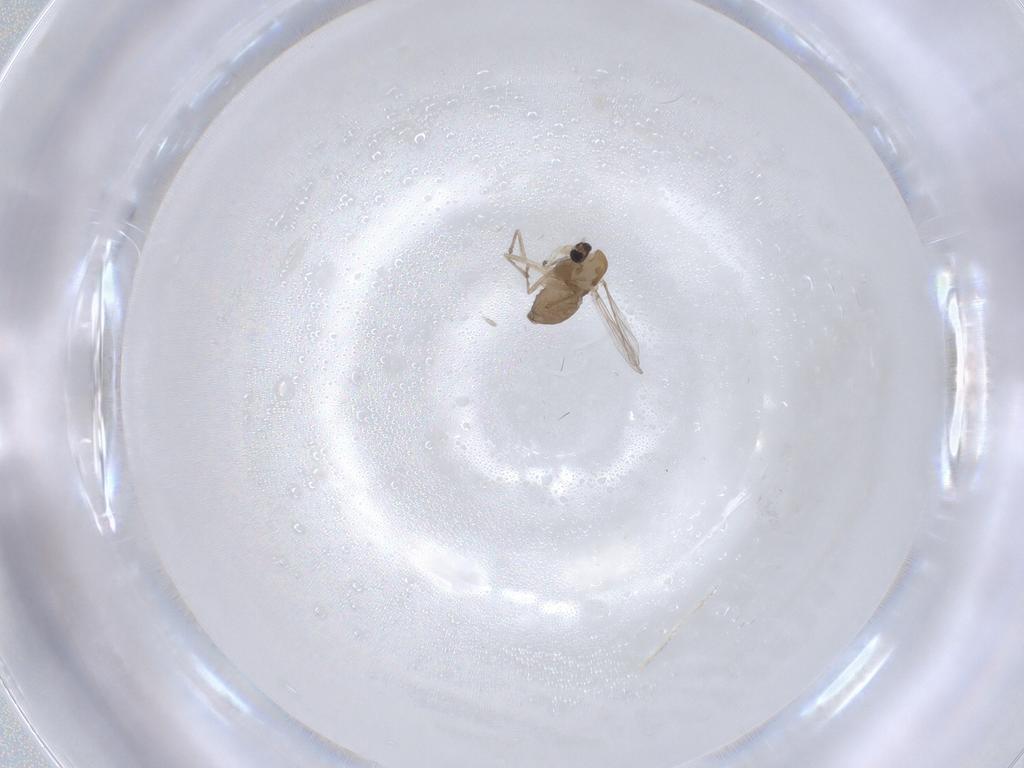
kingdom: Animalia
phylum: Arthropoda
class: Insecta
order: Diptera
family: Chironomidae
